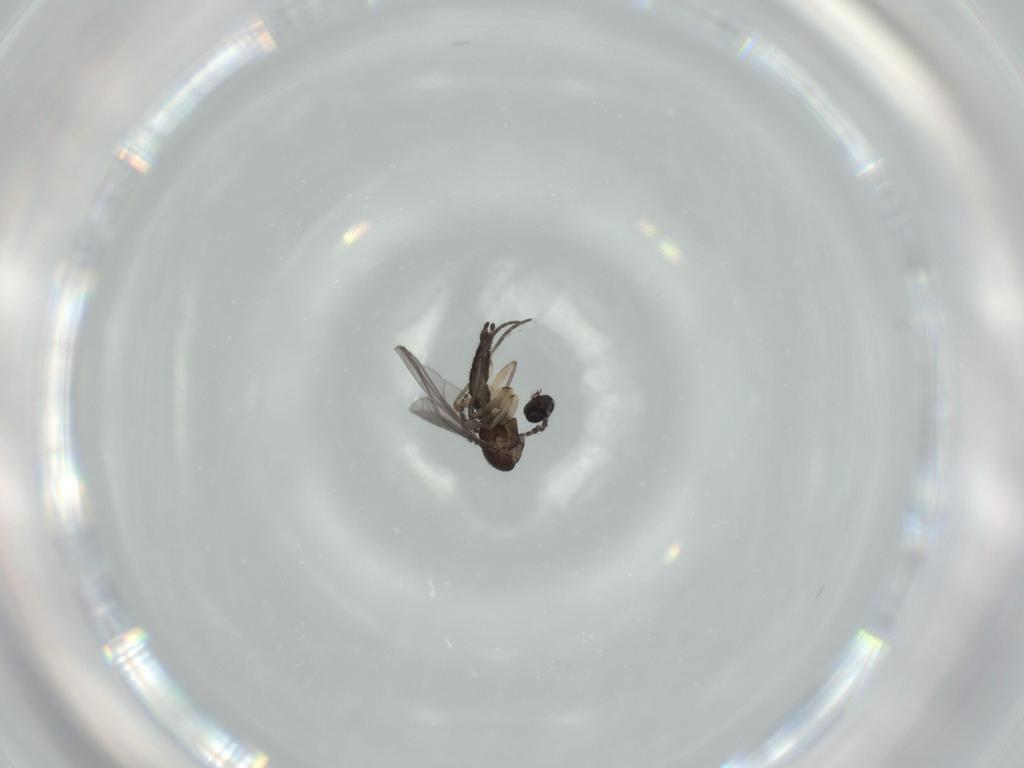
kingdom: Animalia
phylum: Arthropoda
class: Insecta
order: Diptera
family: Sciaridae
